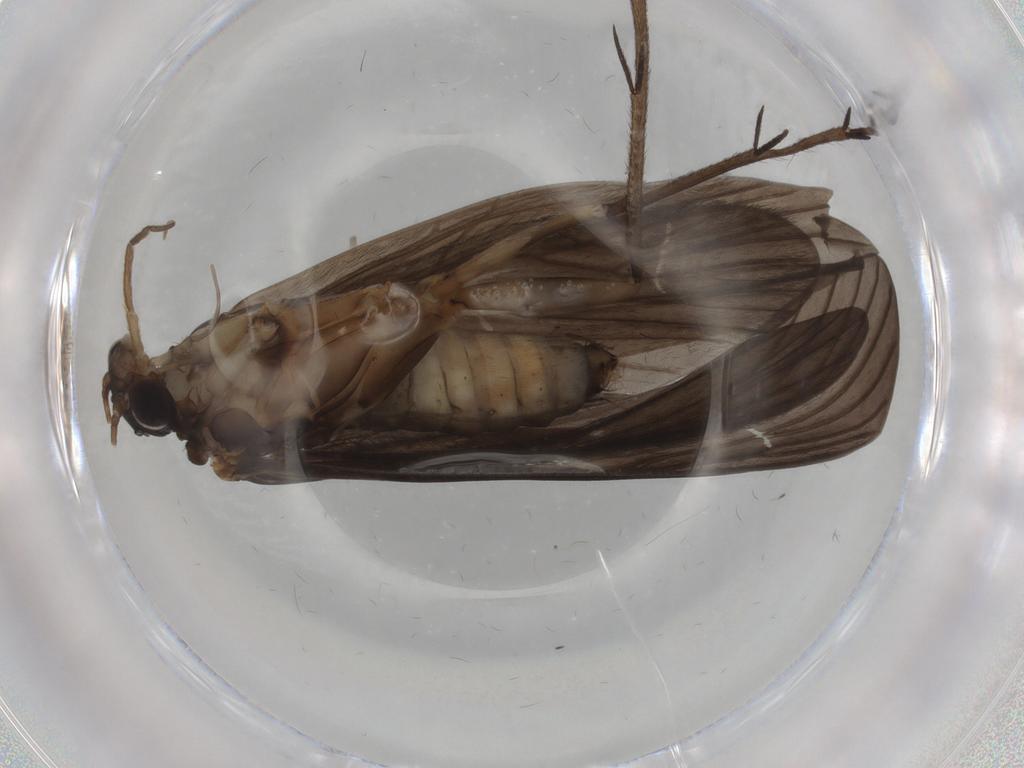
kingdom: Animalia
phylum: Arthropoda
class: Insecta
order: Trichoptera
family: Philopotamidae
